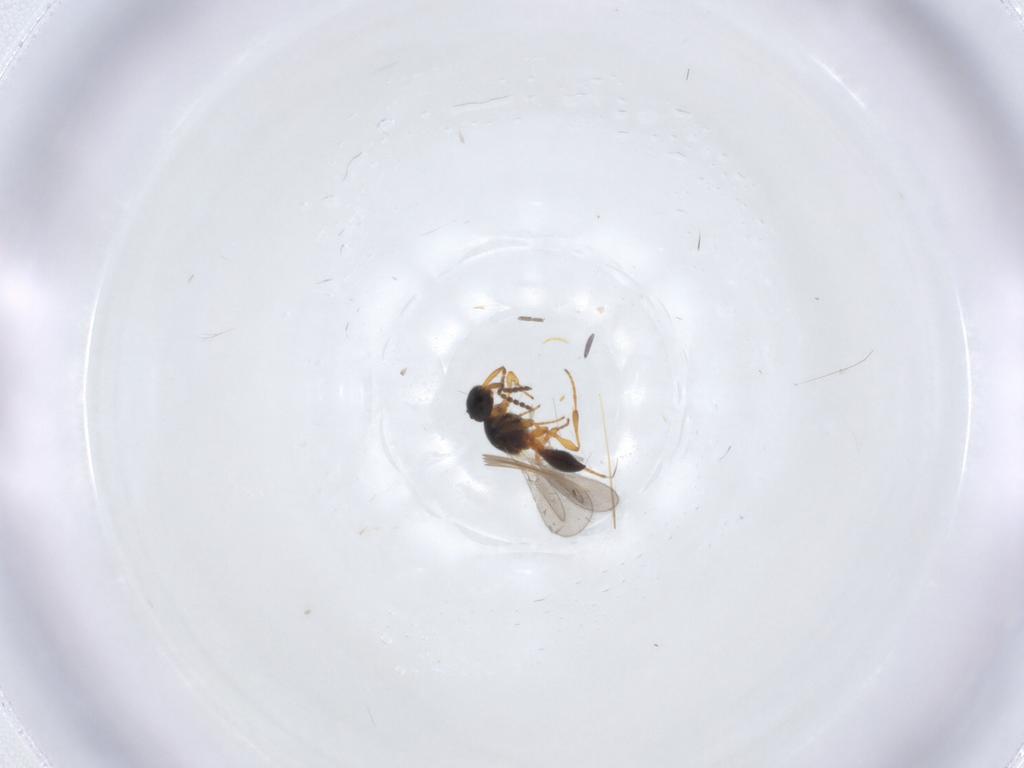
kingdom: Animalia
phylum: Arthropoda
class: Insecta
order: Hymenoptera
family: Platygastridae
